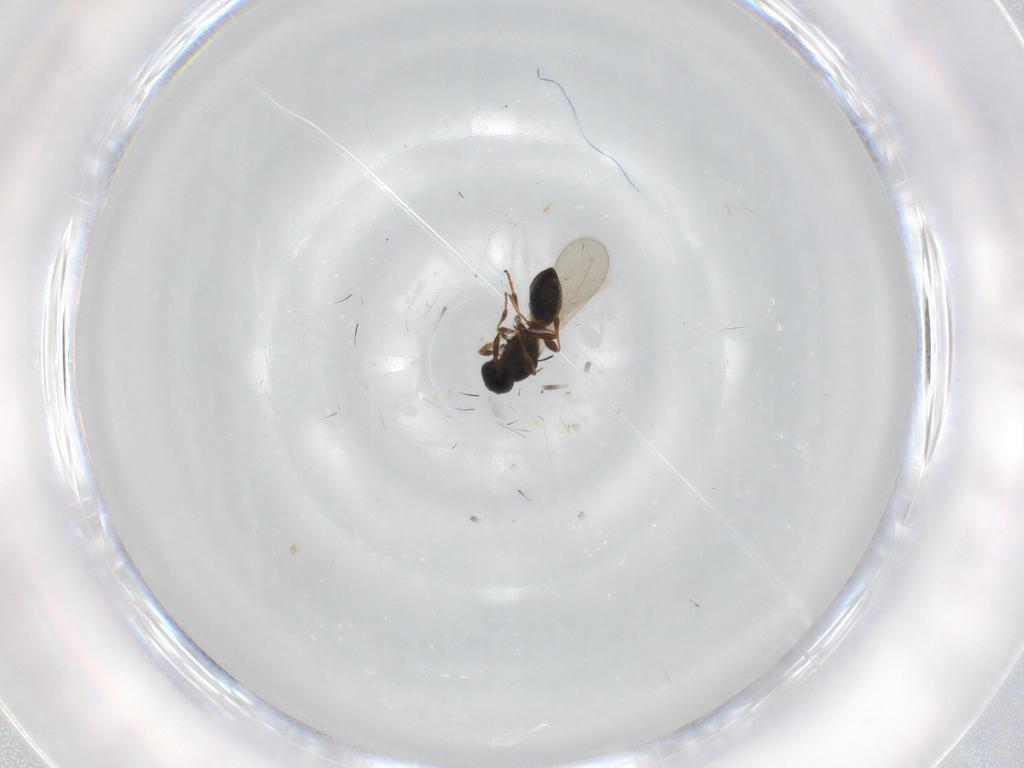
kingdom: Animalia
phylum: Arthropoda
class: Insecta
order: Hymenoptera
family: Platygastridae
